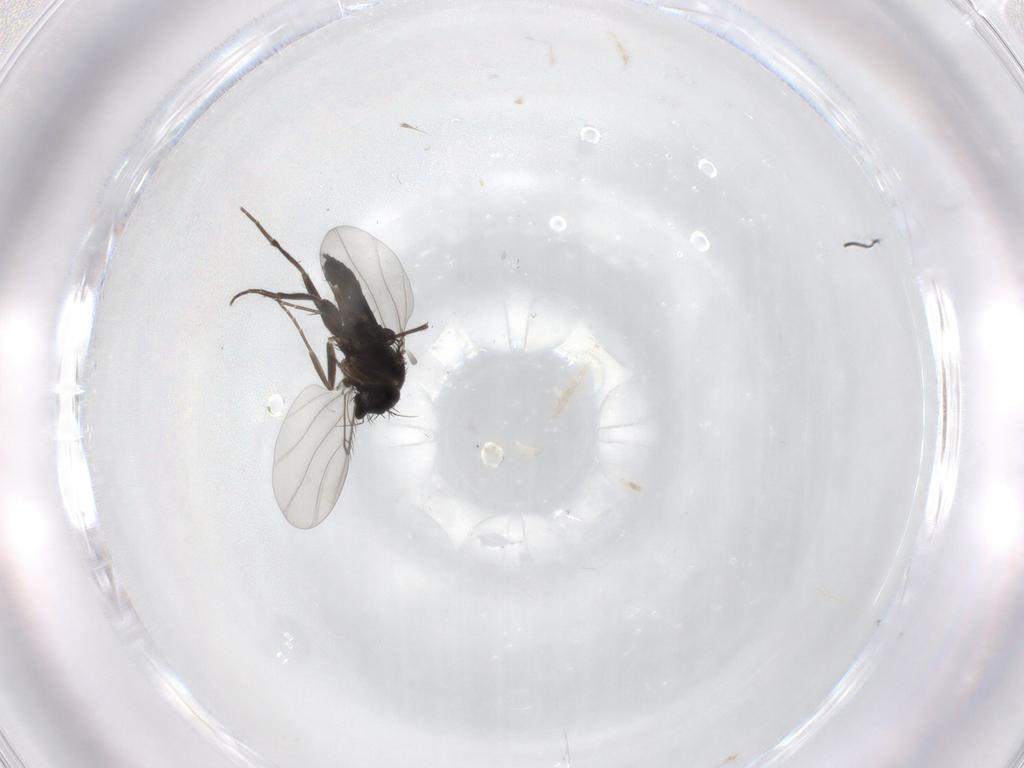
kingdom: Animalia
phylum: Arthropoda
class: Insecta
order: Diptera
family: Phoridae
